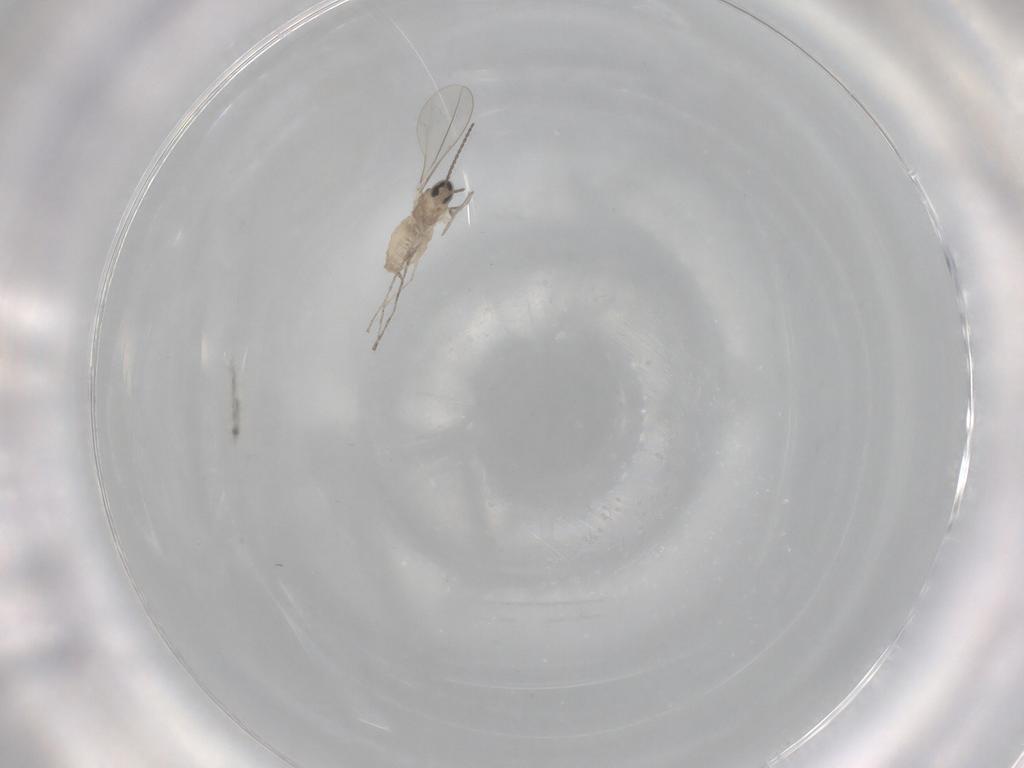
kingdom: Animalia
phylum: Arthropoda
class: Insecta
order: Diptera
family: Cecidomyiidae
